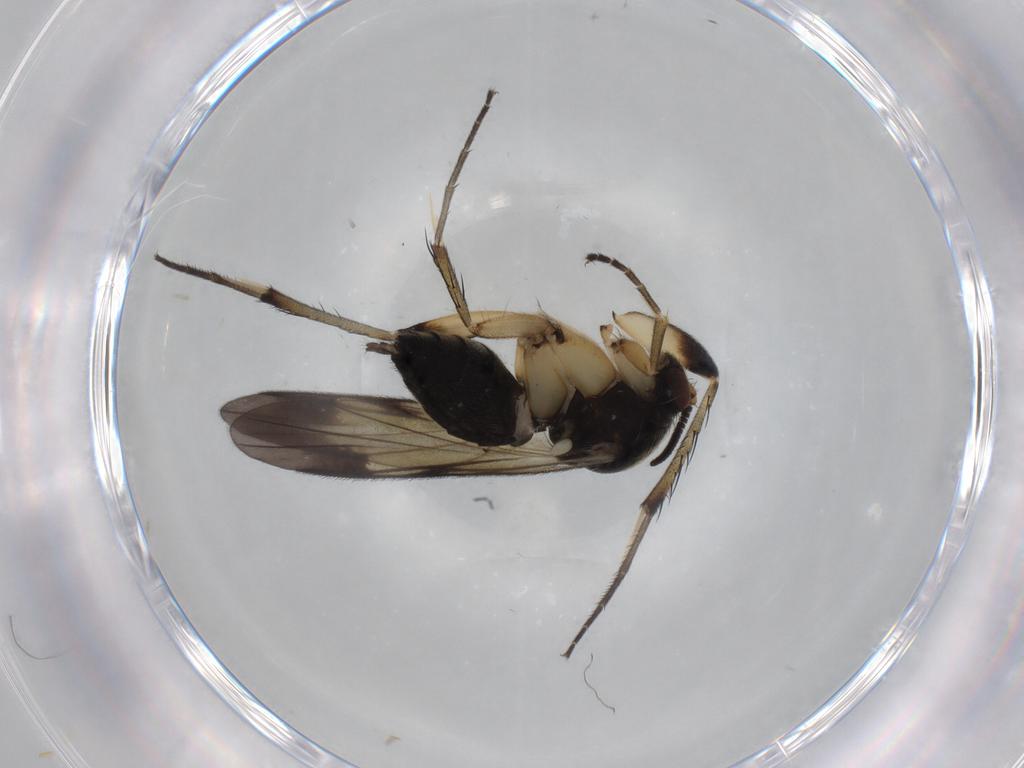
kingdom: Animalia
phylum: Arthropoda
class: Insecta
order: Diptera
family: Mycetophilidae
